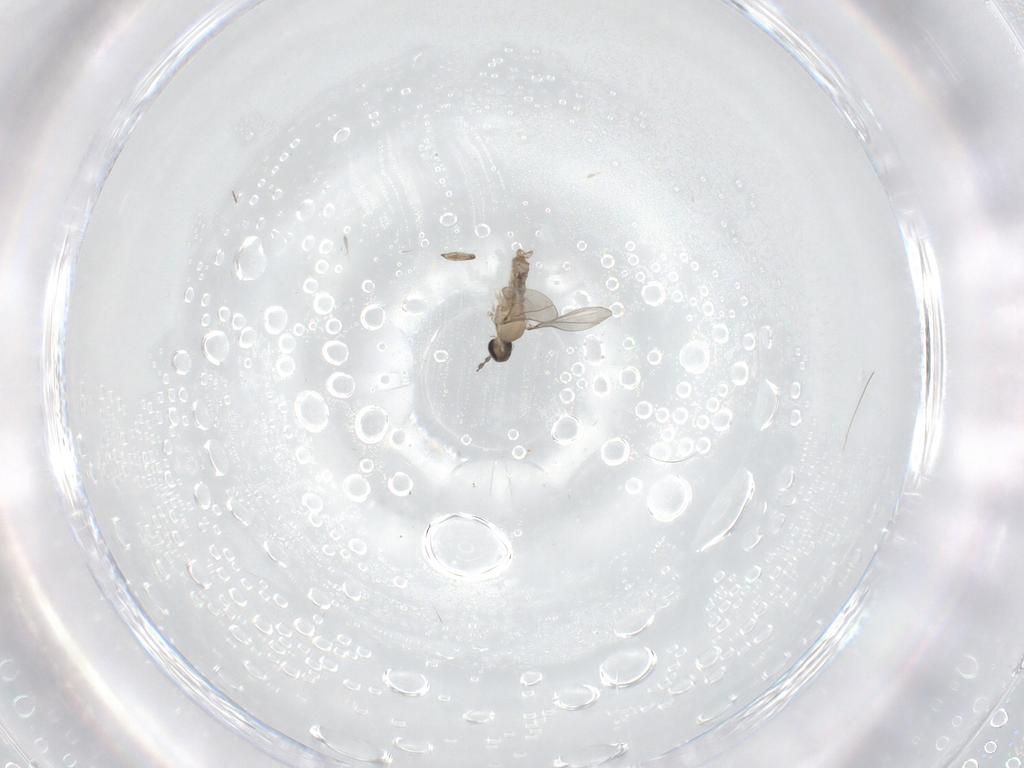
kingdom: Animalia
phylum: Arthropoda
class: Insecta
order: Diptera
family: Cecidomyiidae
